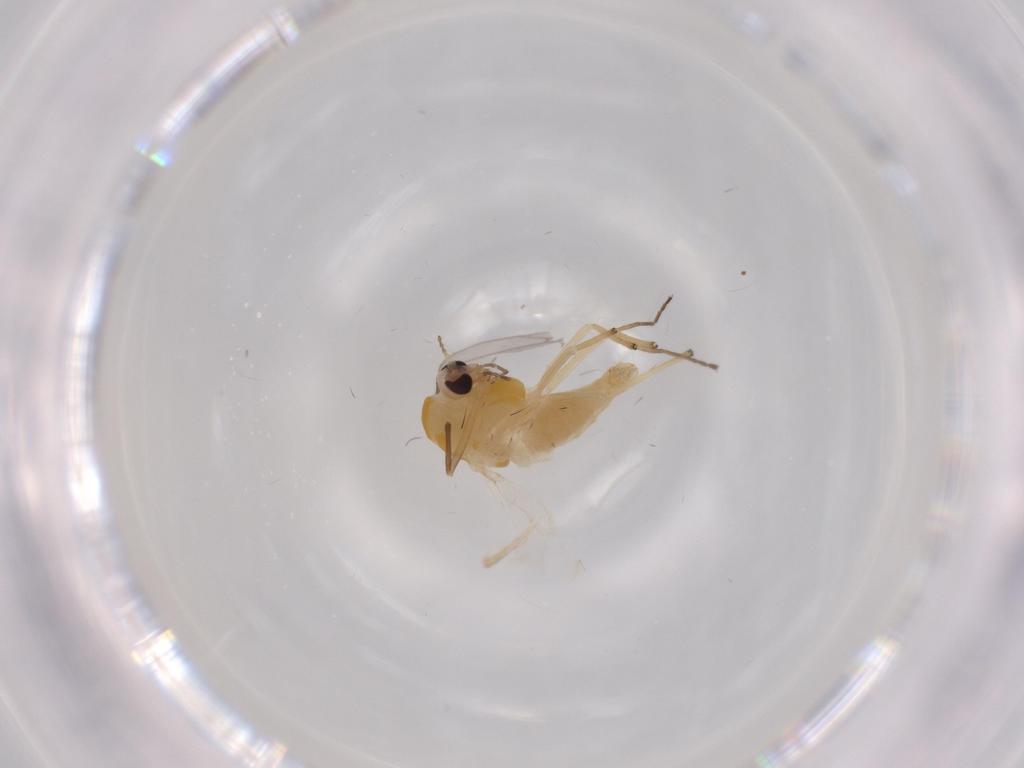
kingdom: Animalia
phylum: Arthropoda
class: Insecta
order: Diptera
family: Chironomidae
